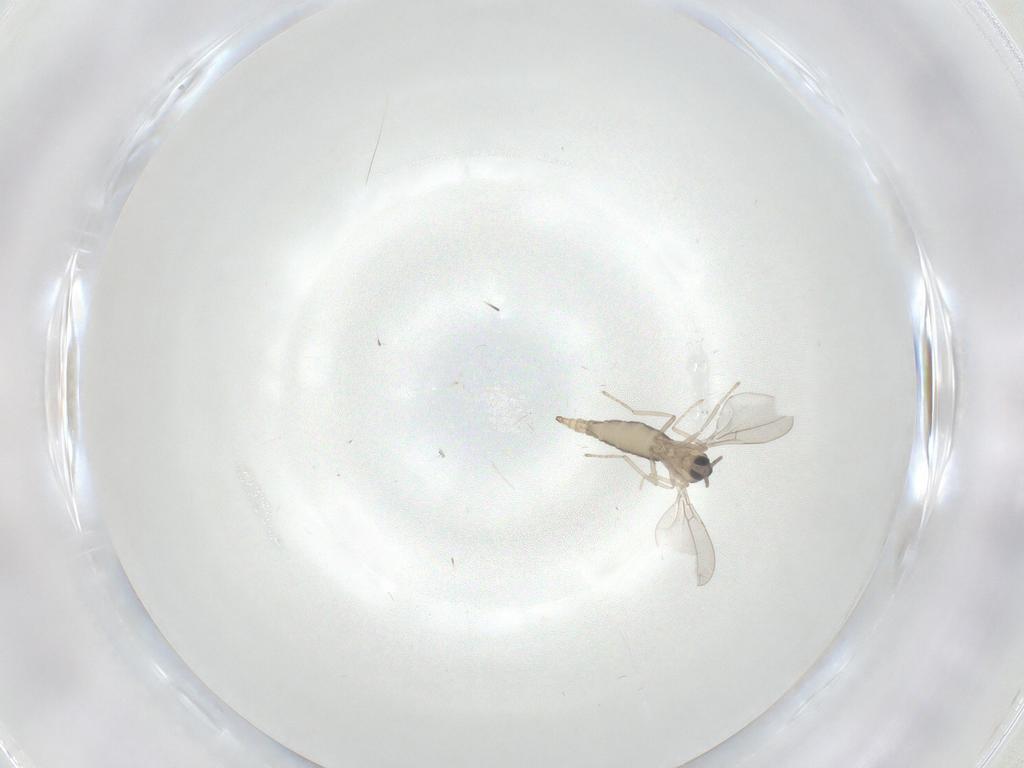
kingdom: Animalia
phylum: Arthropoda
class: Insecta
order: Diptera
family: Cecidomyiidae
